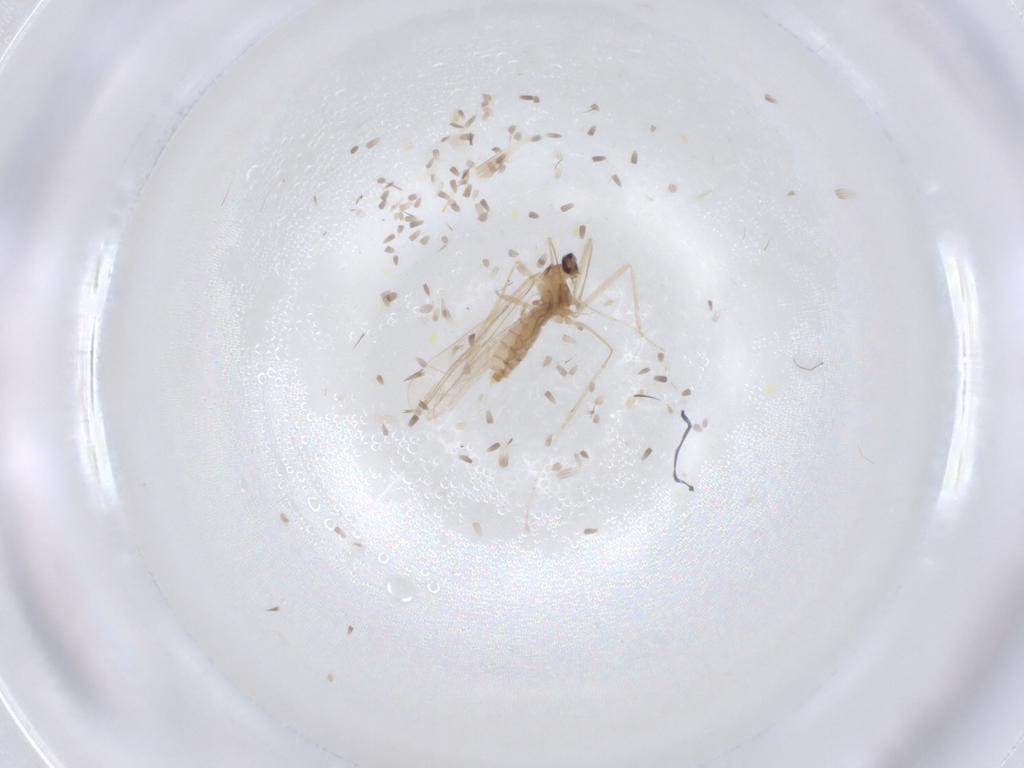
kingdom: Animalia
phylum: Arthropoda
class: Insecta
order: Diptera
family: Cecidomyiidae
